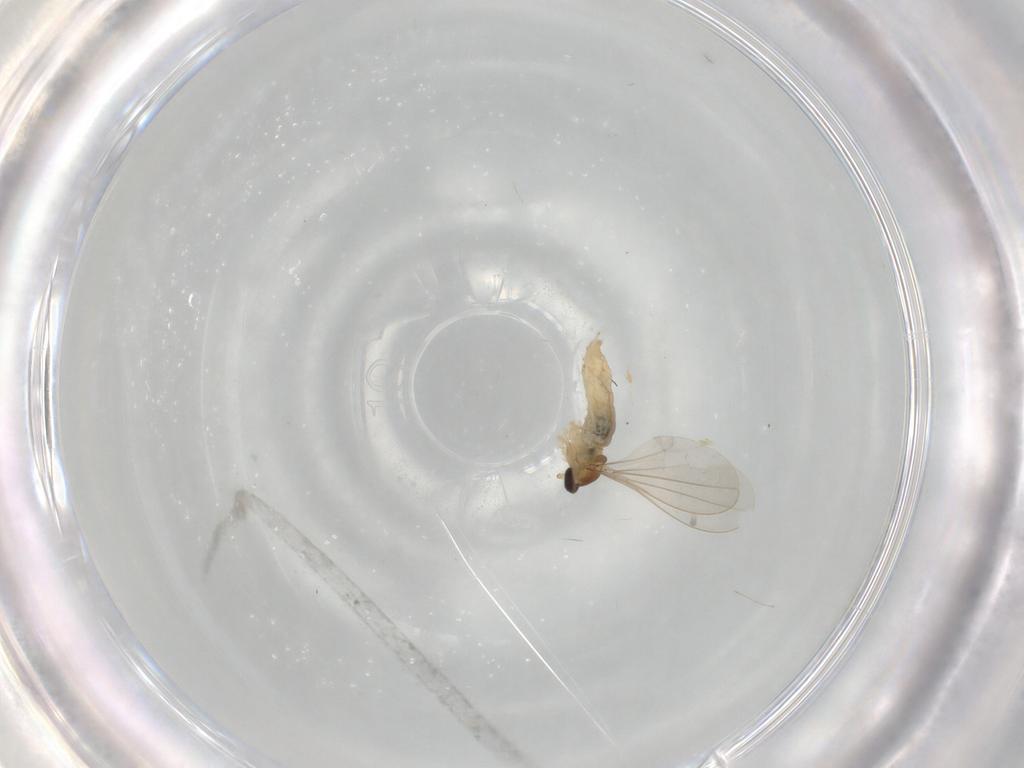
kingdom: Animalia
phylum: Arthropoda
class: Insecta
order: Diptera
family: Cecidomyiidae
